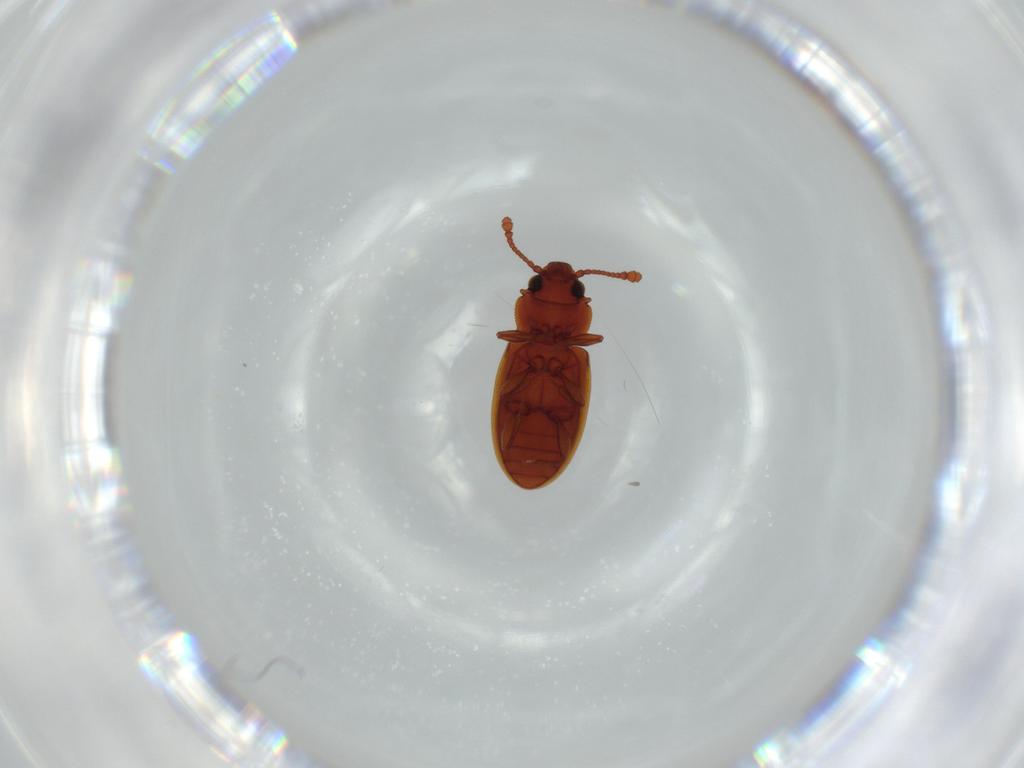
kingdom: Animalia
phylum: Arthropoda
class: Insecta
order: Coleoptera
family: Silvanidae
